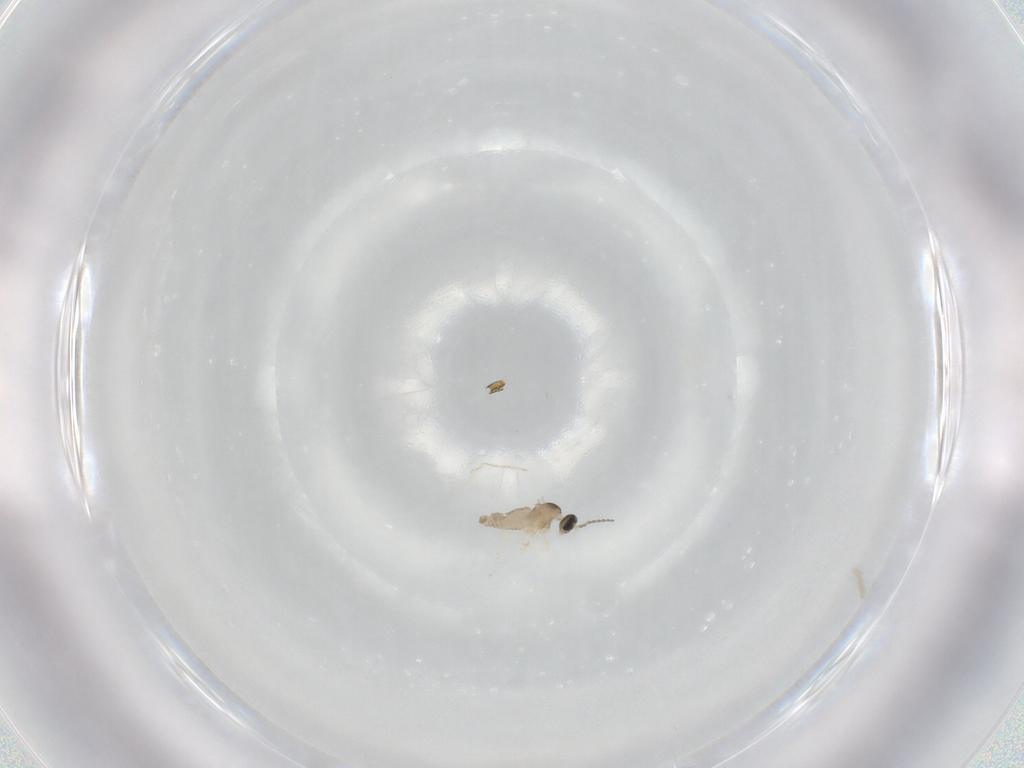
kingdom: Animalia
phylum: Arthropoda
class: Insecta
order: Diptera
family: Cecidomyiidae
